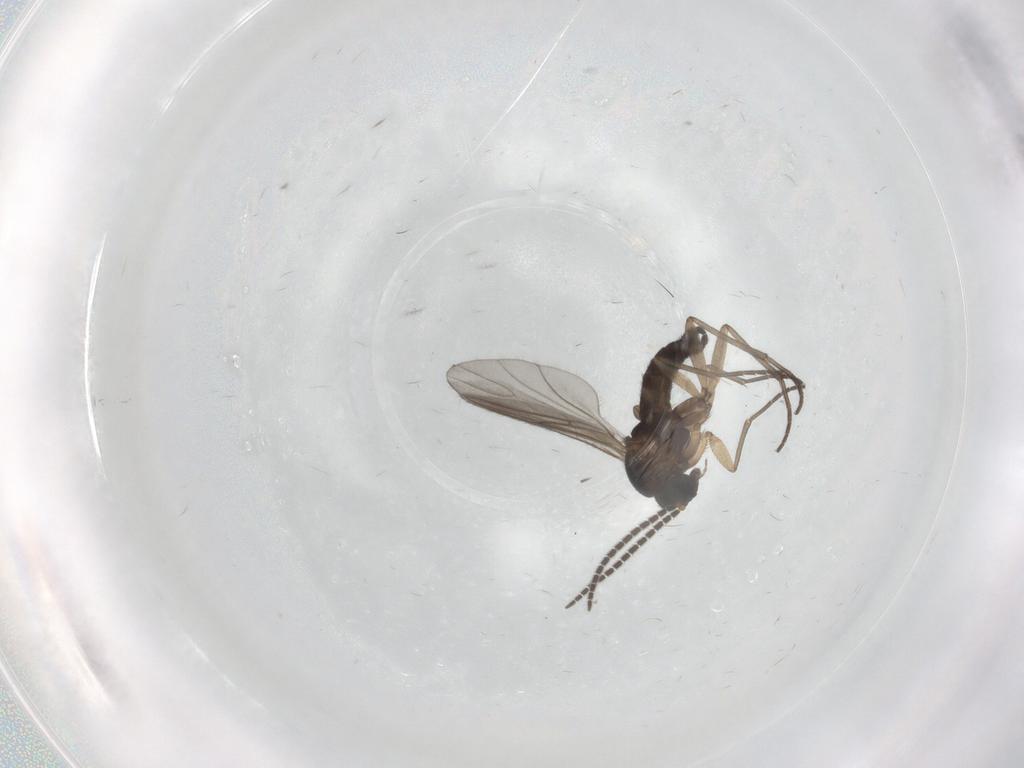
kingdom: Animalia
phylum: Arthropoda
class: Insecta
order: Diptera
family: Sciaridae
